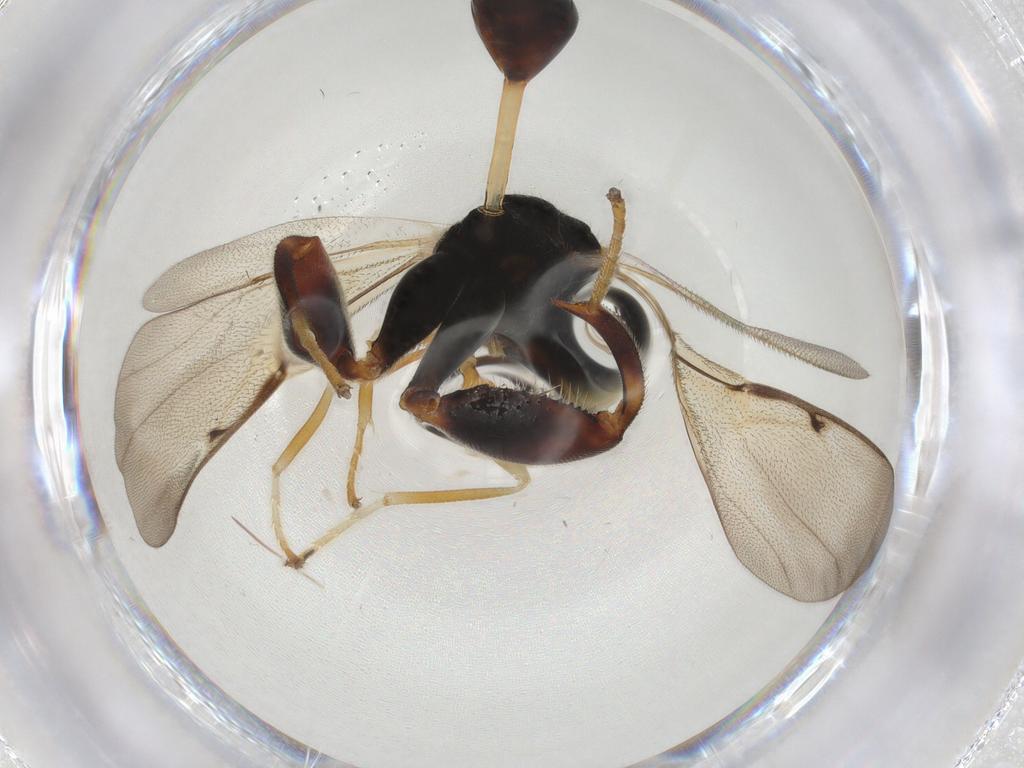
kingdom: Animalia
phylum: Arthropoda
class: Insecta
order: Hymenoptera
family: Chalcididae
